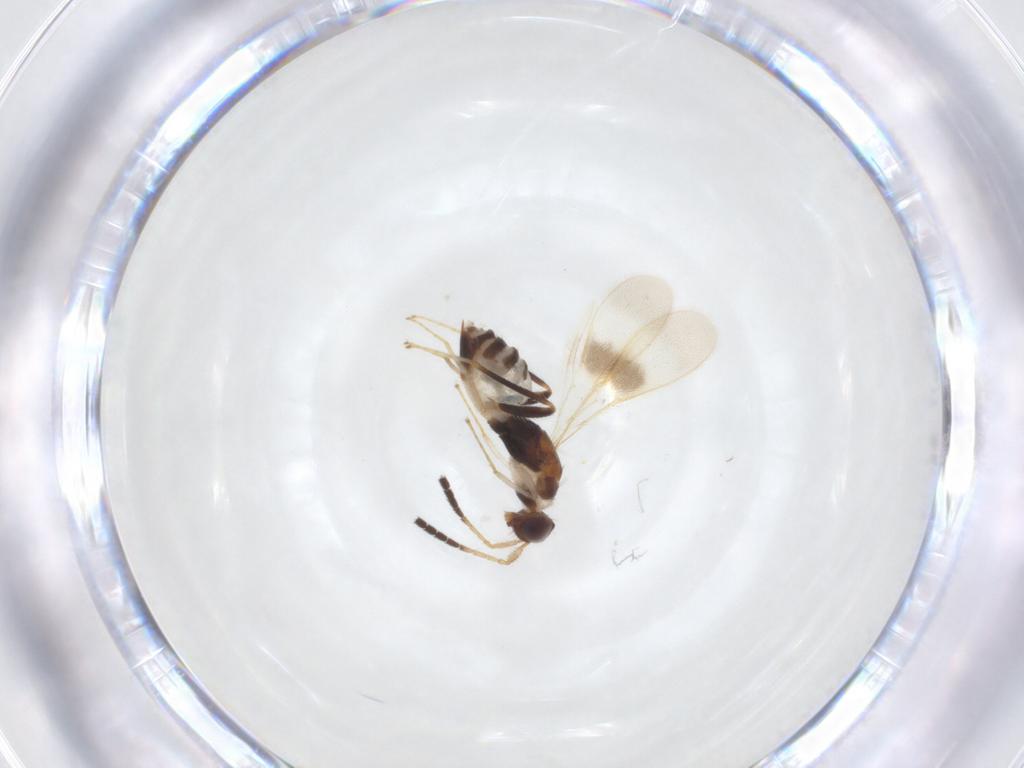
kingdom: Animalia
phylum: Arthropoda
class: Insecta
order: Hymenoptera
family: Mymaridae
